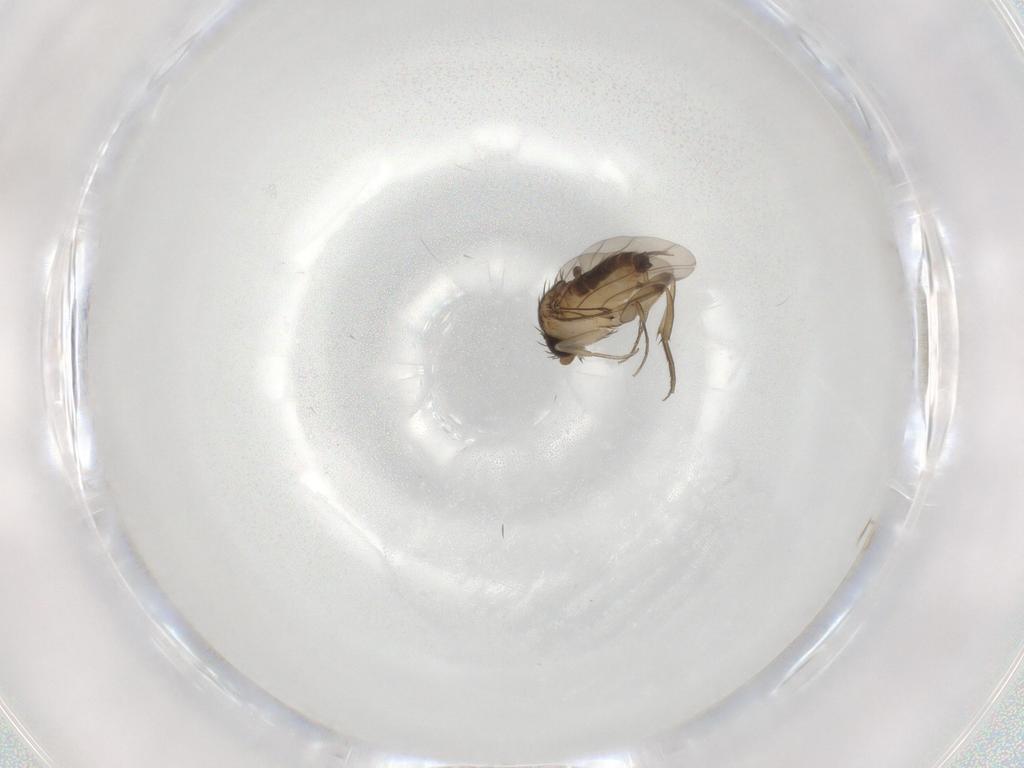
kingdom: Animalia
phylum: Arthropoda
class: Insecta
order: Diptera
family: Phoridae
